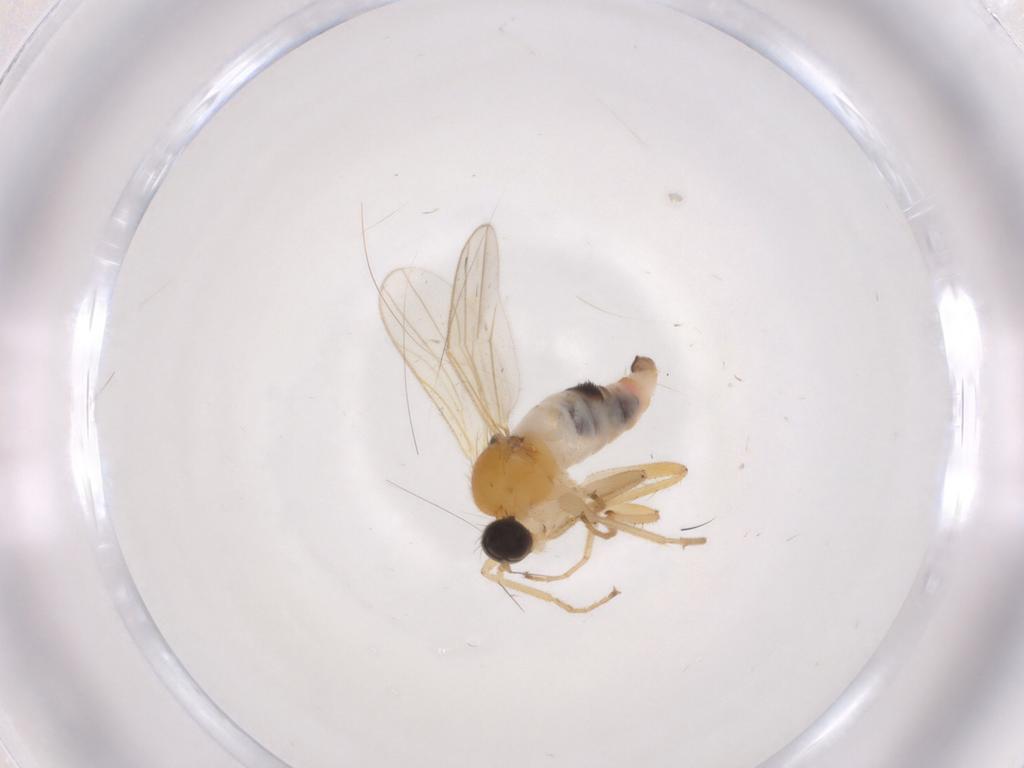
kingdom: Animalia
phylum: Arthropoda
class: Insecta
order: Diptera
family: Hybotidae
